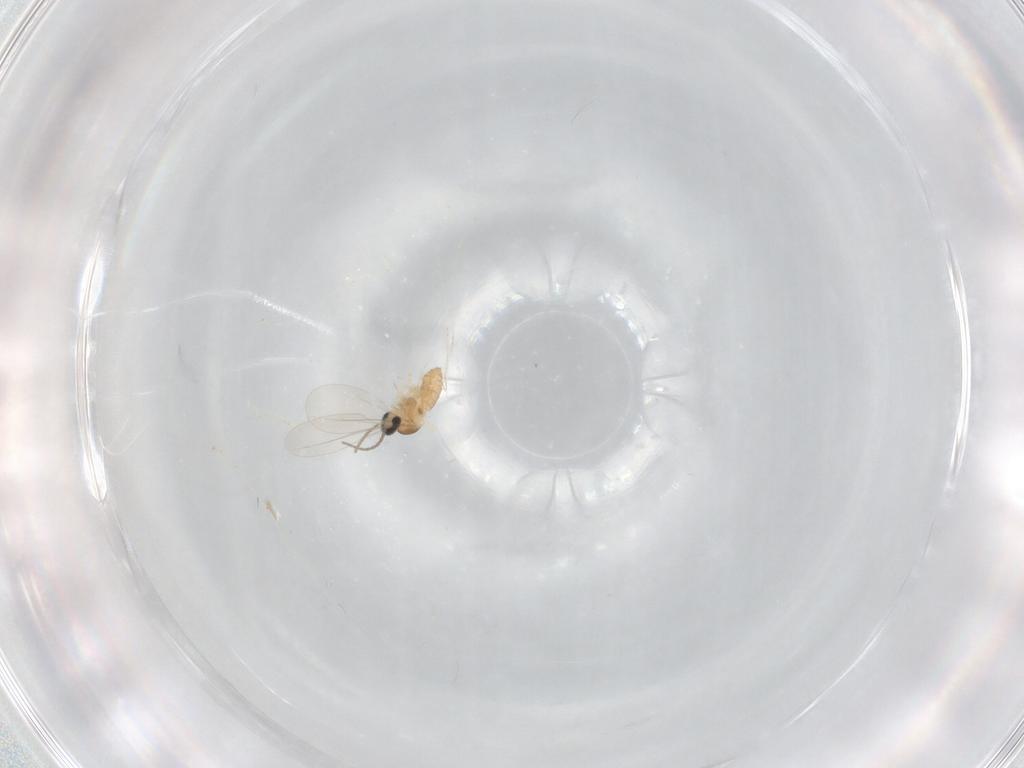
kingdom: Animalia
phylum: Arthropoda
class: Insecta
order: Diptera
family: Cecidomyiidae
